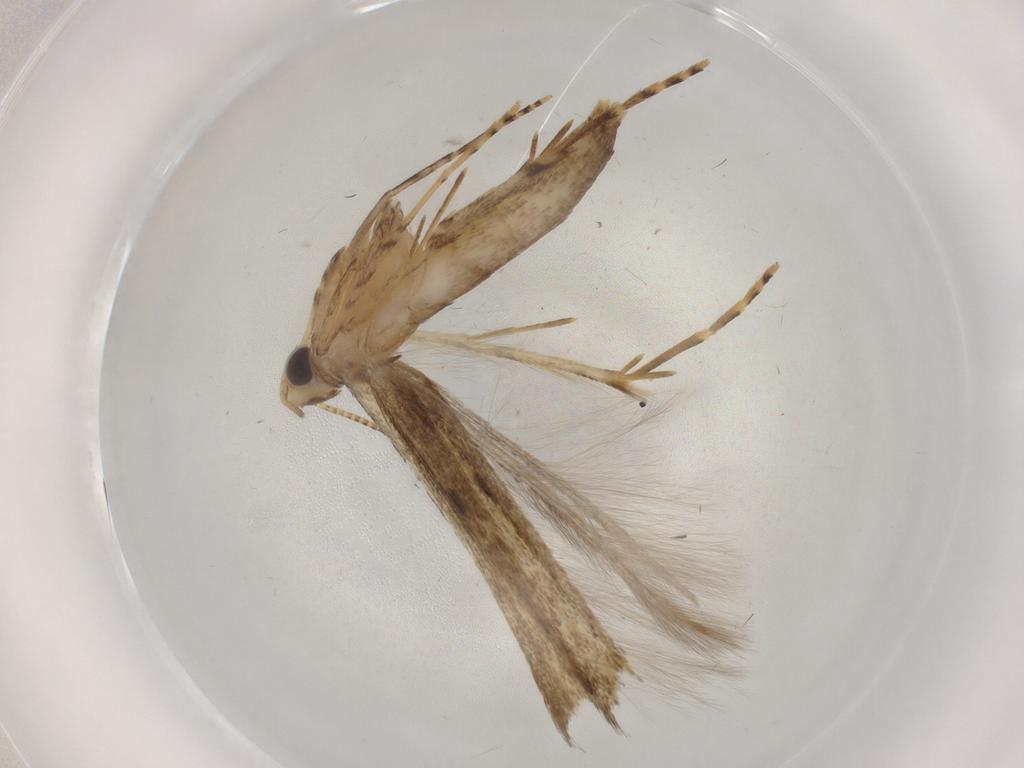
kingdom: Animalia
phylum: Arthropoda
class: Insecta
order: Lepidoptera
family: Batrachedridae
